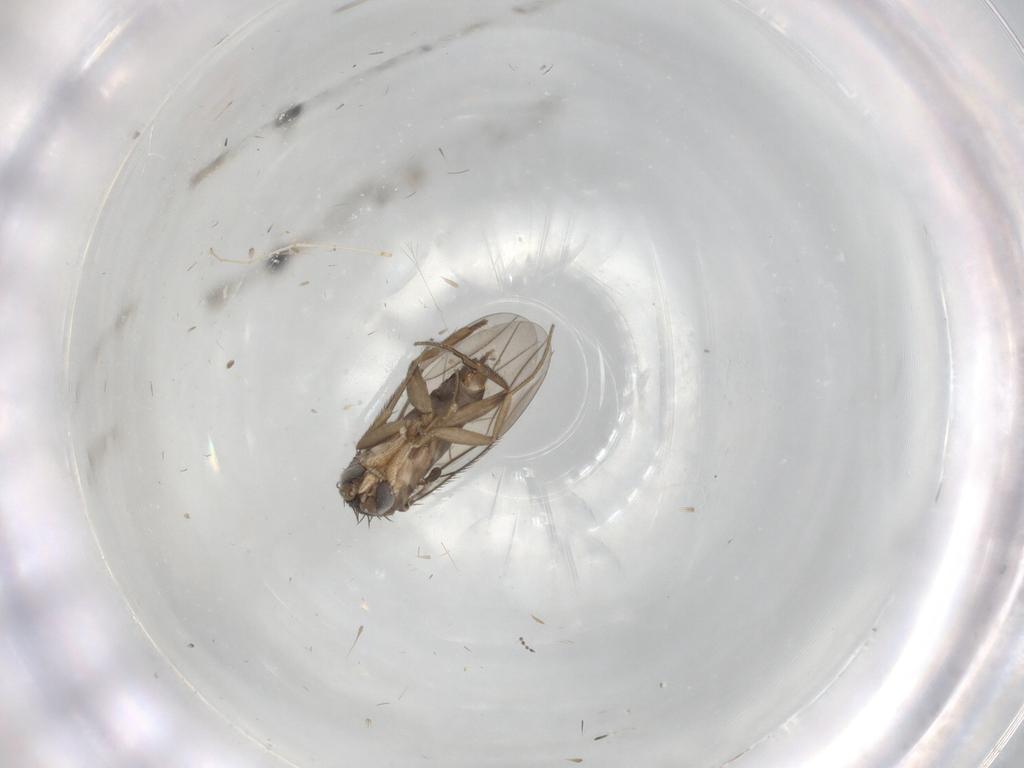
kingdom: Animalia
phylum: Arthropoda
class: Insecta
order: Diptera
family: Phoridae
